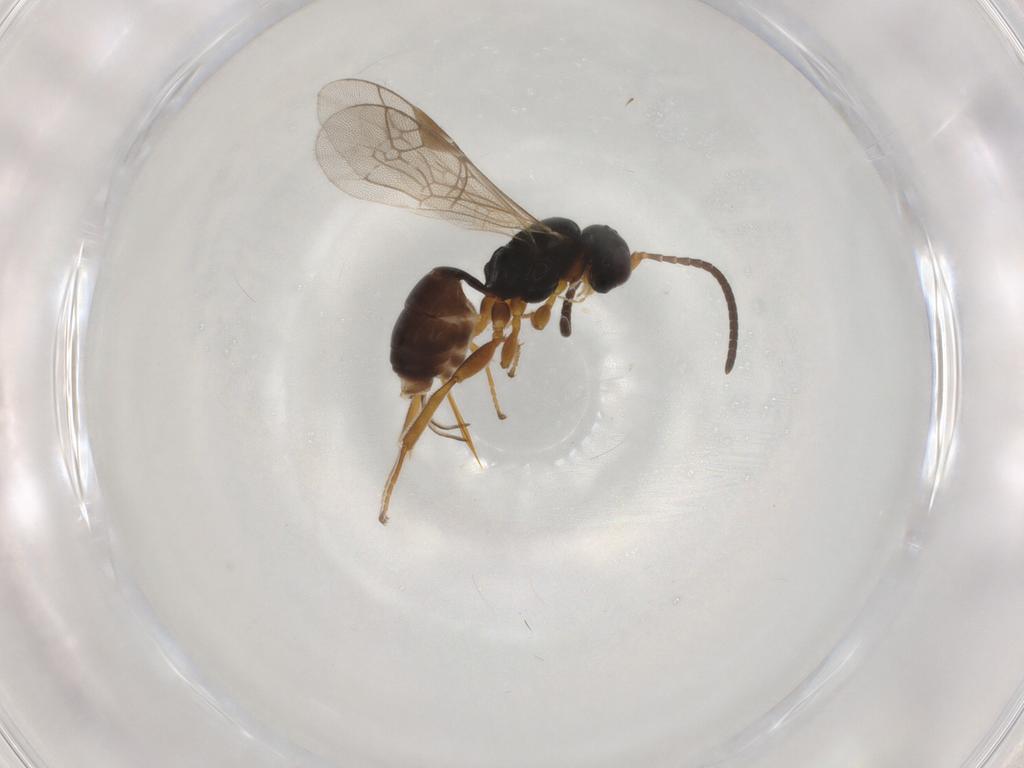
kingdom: Animalia
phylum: Arthropoda
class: Insecta
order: Hymenoptera
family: Ichneumonidae
